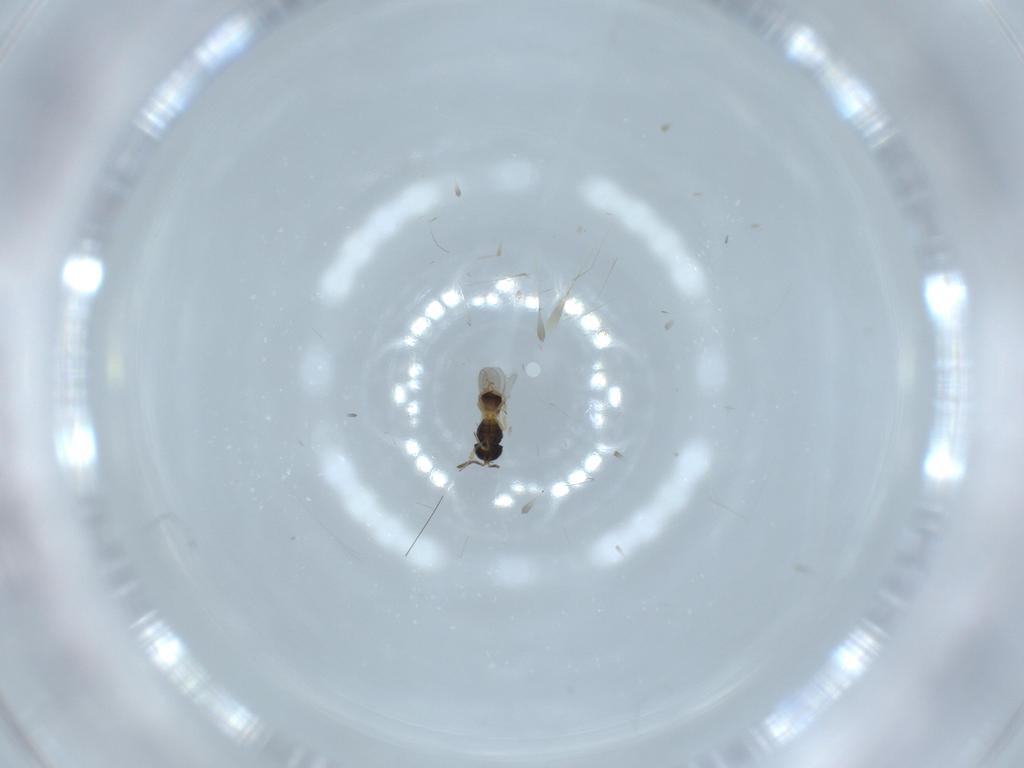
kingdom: Animalia
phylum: Arthropoda
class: Insecta
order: Hymenoptera
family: Scelionidae
